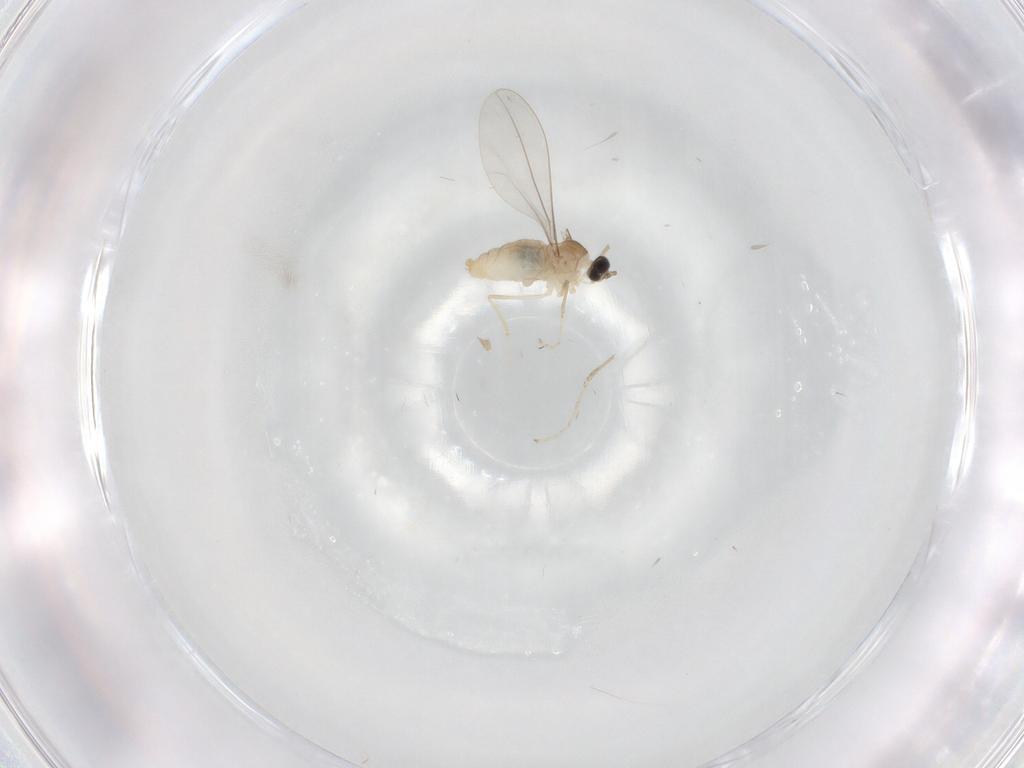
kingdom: Animalia
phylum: Arthropoda
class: Insecta
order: Diptera
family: Cecidomyiidae
